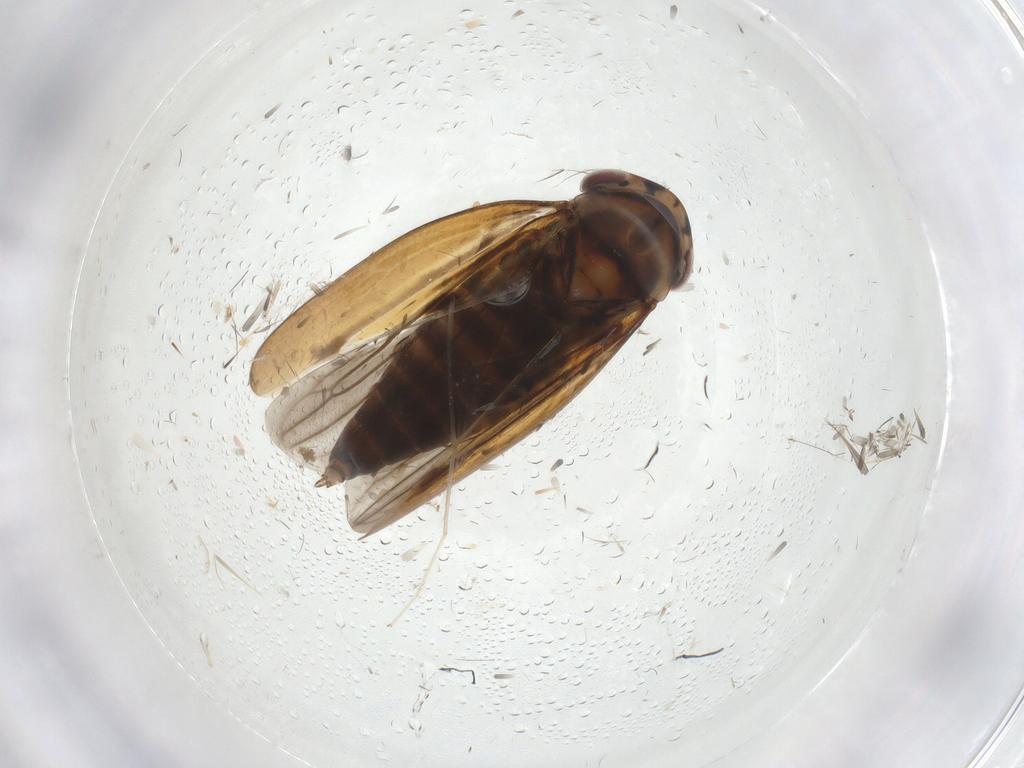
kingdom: Animalia
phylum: Arthropoda
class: Insecta
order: Hemiptera
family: Cicadellidae
